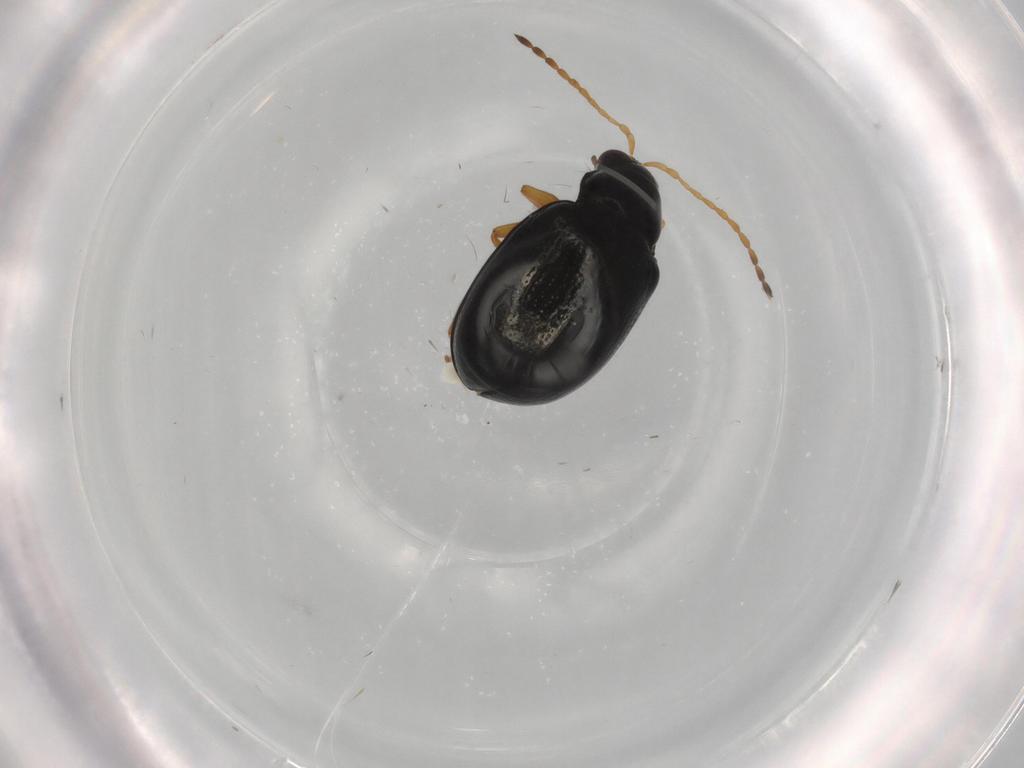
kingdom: Animalia
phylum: Arthropoda
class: Insecta
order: Coleoptera
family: Chrysomelidae
